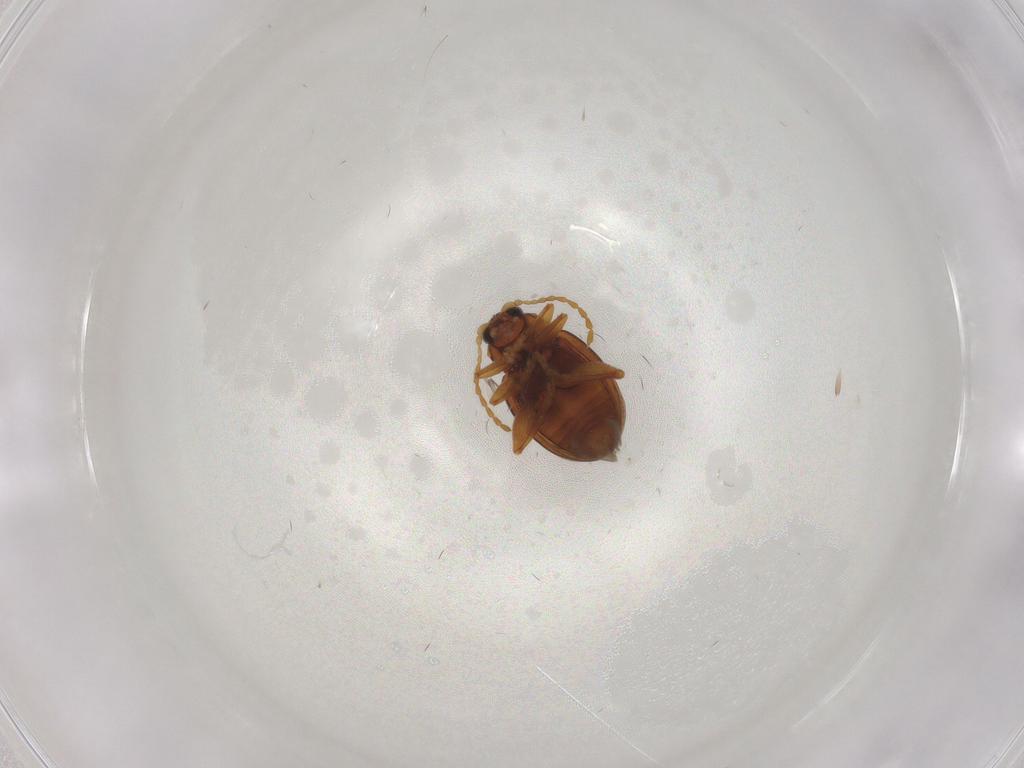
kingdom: Animalia
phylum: Arthropoda
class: Insecta
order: Coleoptera
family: Chrysomelidae
